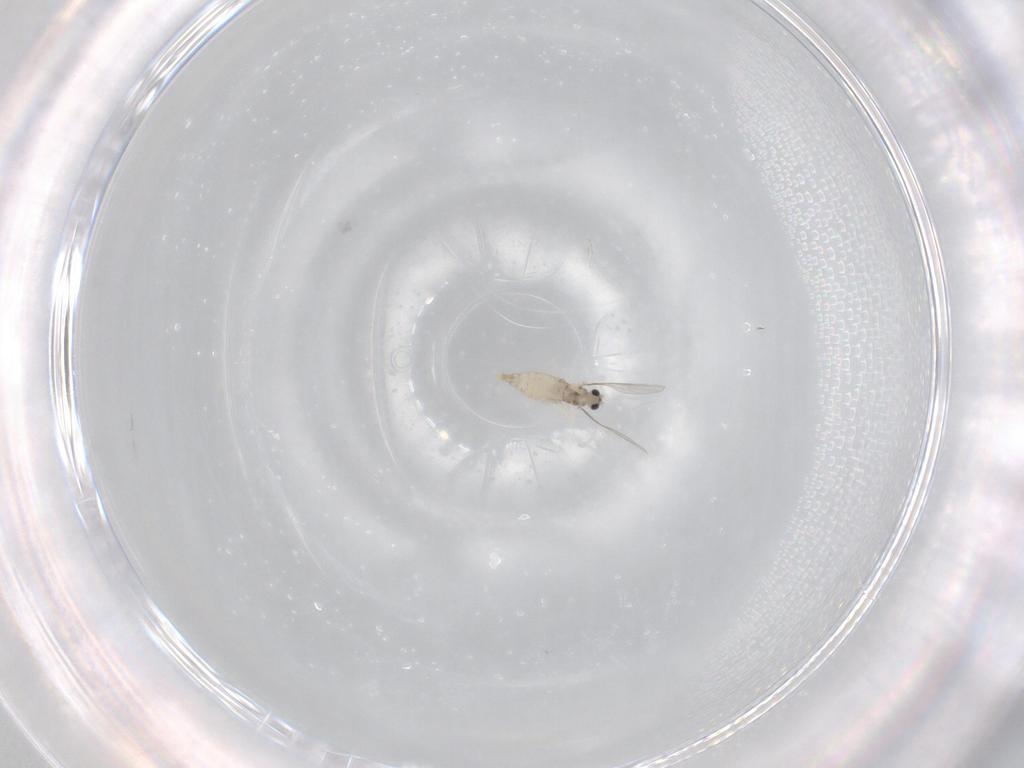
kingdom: Animalia
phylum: Arthropoda
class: Insecta
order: Diptera
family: Ceratopogonidae
